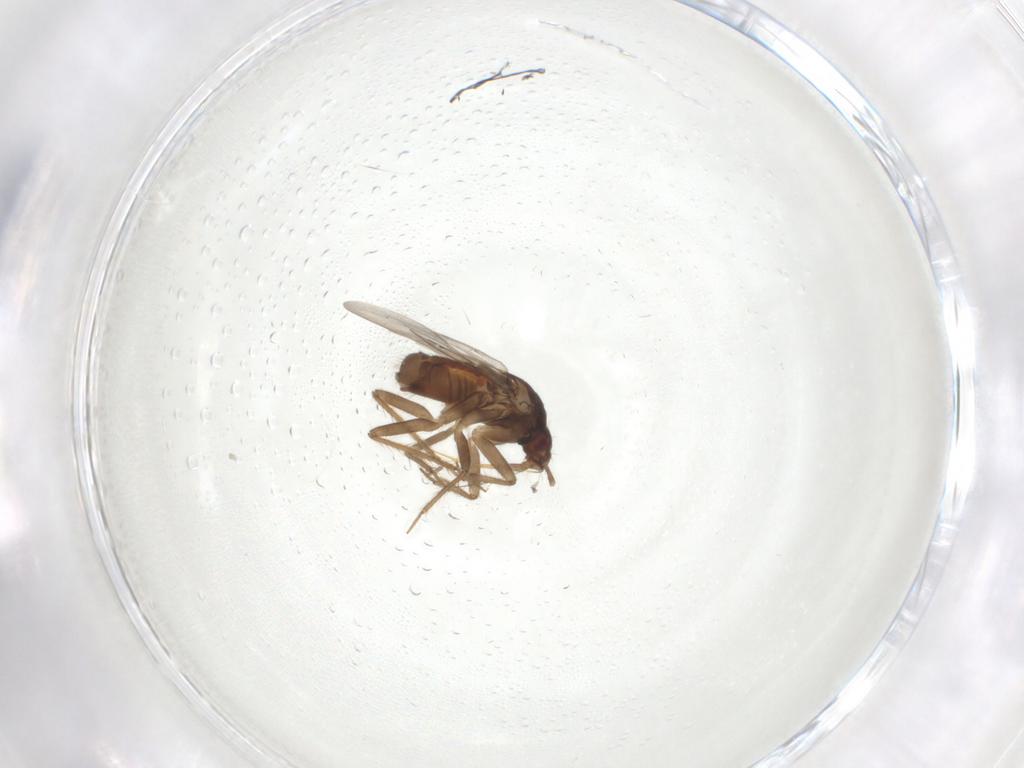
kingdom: Animalia
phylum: Arthropoda
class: Insecta
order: Hemiptera
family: Ceratocombidae
